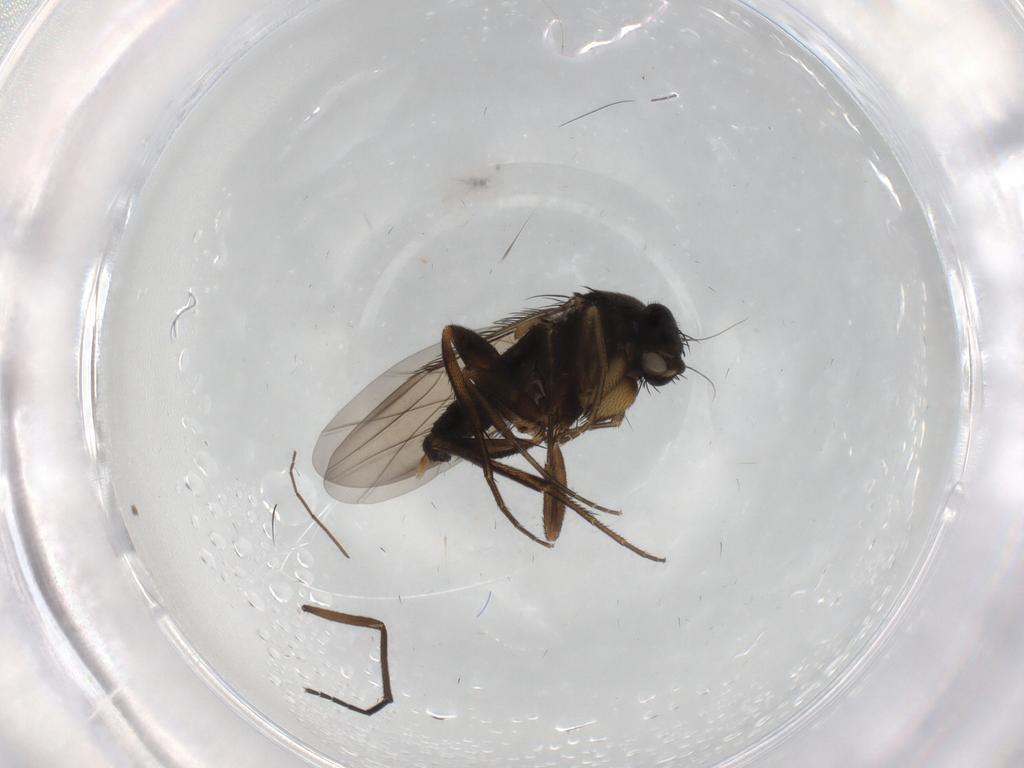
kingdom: Animalia
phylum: Arthropoda
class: Insecta
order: Diptera
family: Phoridae
